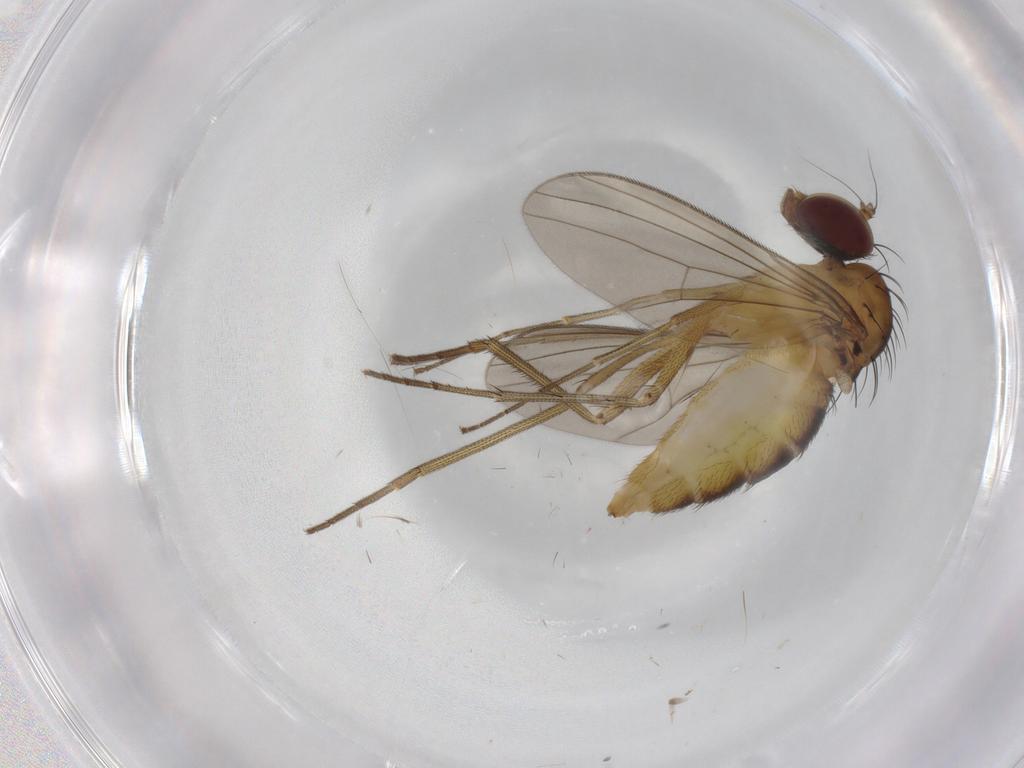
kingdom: Animalia
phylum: Arthropoda
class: Insecta
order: Diptera
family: Dolichopodidae
